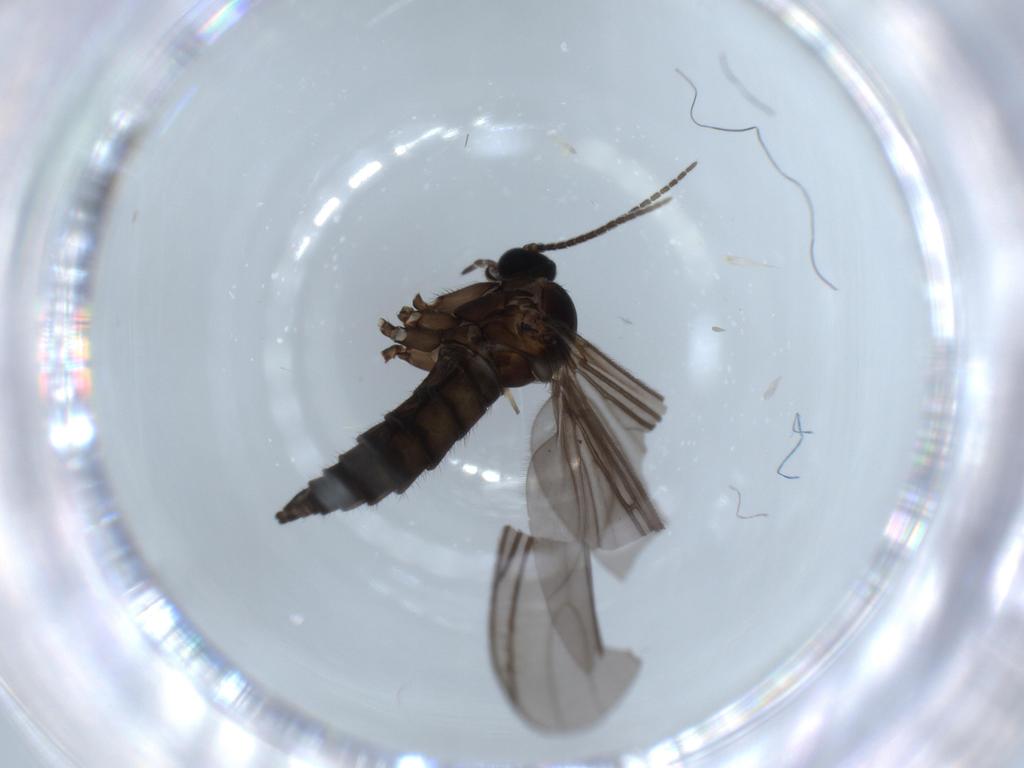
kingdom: Animalia
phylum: Arthropoda
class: Insecta
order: Diptera
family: Sciaridae
